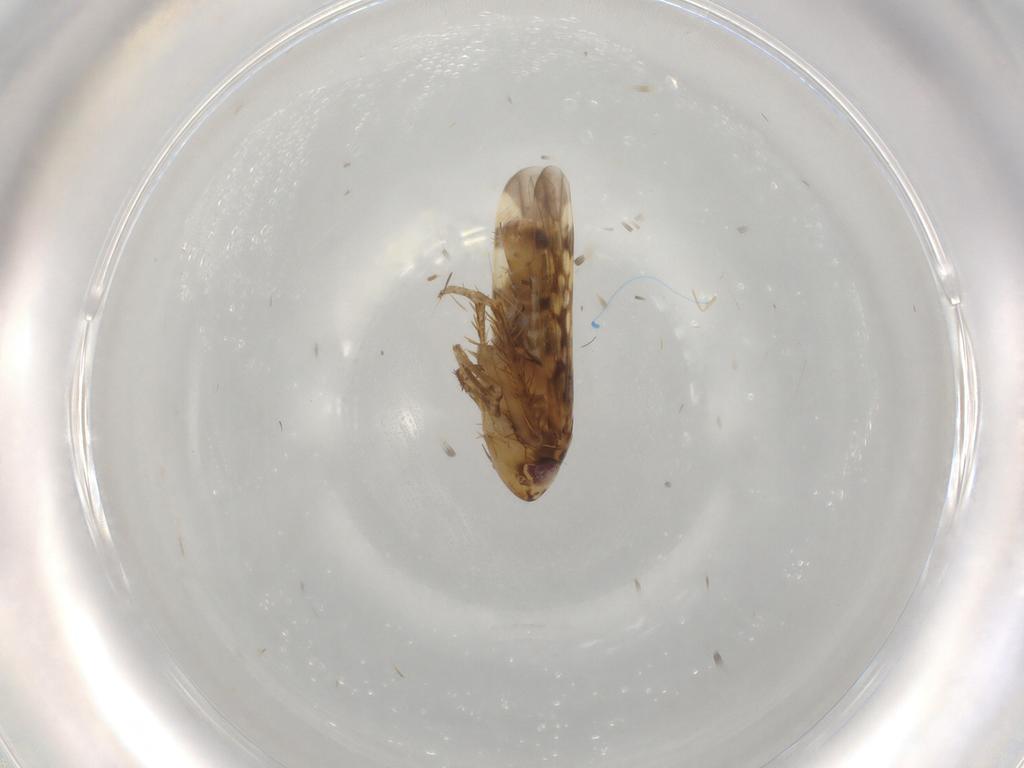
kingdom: Animalia
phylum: Arthropoda
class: Insecta
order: Hemiptera
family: Cicadellidae
